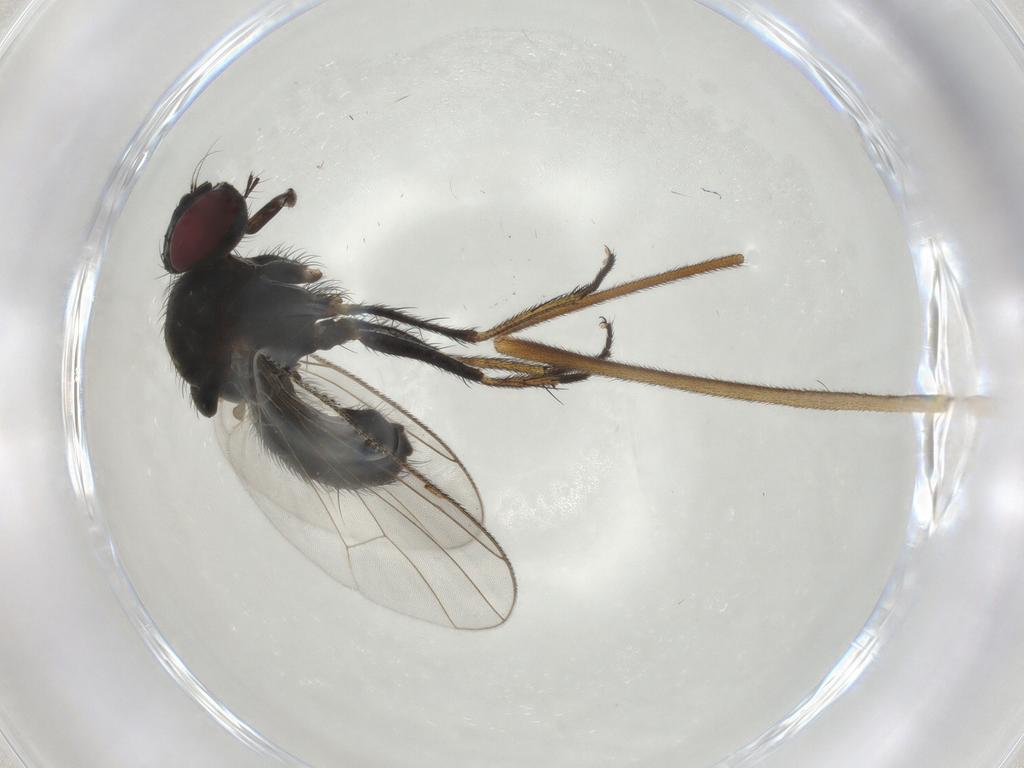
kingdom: Animalia
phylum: Arthropoda
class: Insecta
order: Diptera
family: Limoniidae
